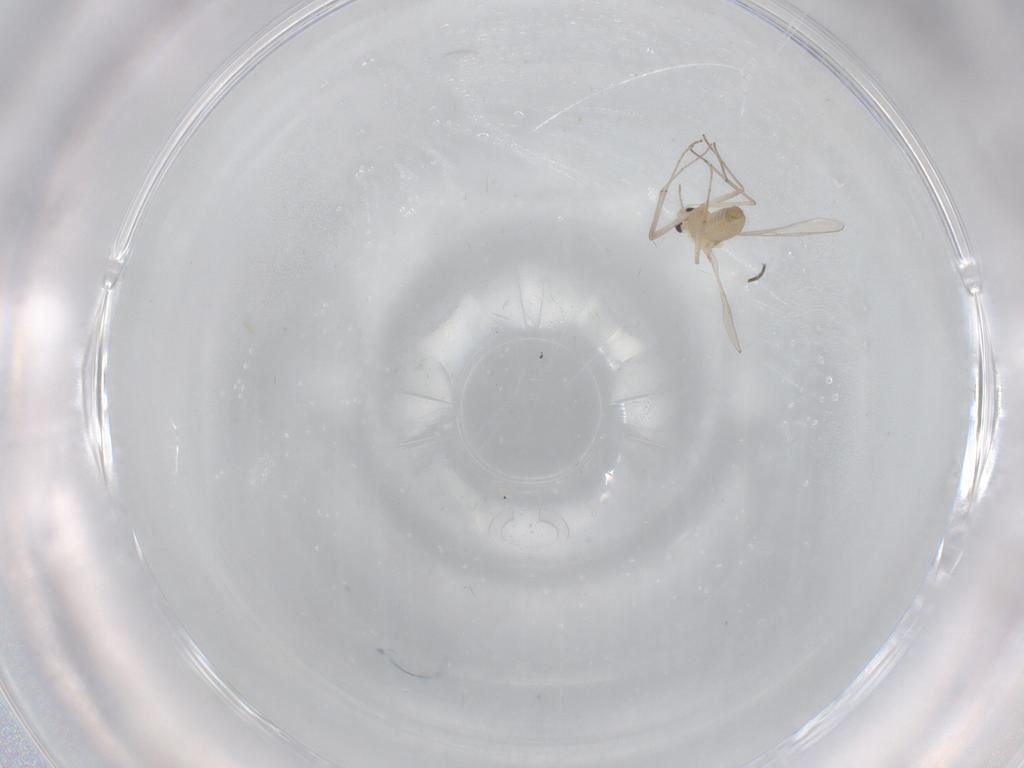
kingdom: Animalia
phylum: Arthropoda
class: Insecta
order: Diptera
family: Chironomidae
